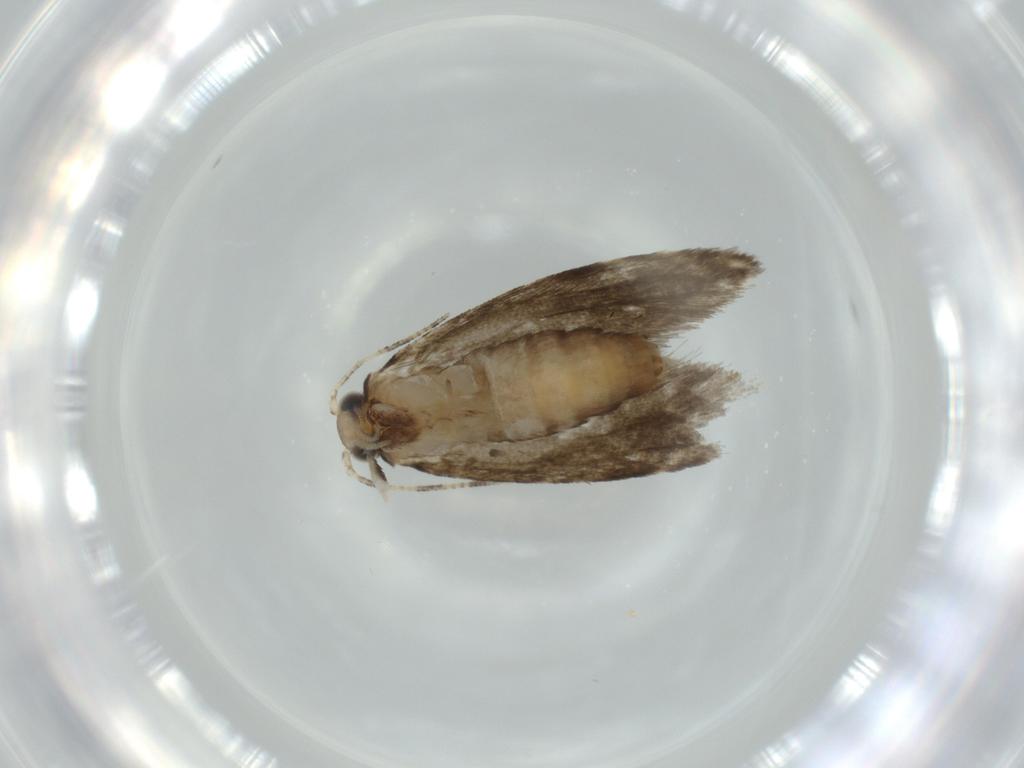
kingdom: Animalia
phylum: Arthropoda
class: Insecta
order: Lepidoptera
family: Tineidae
